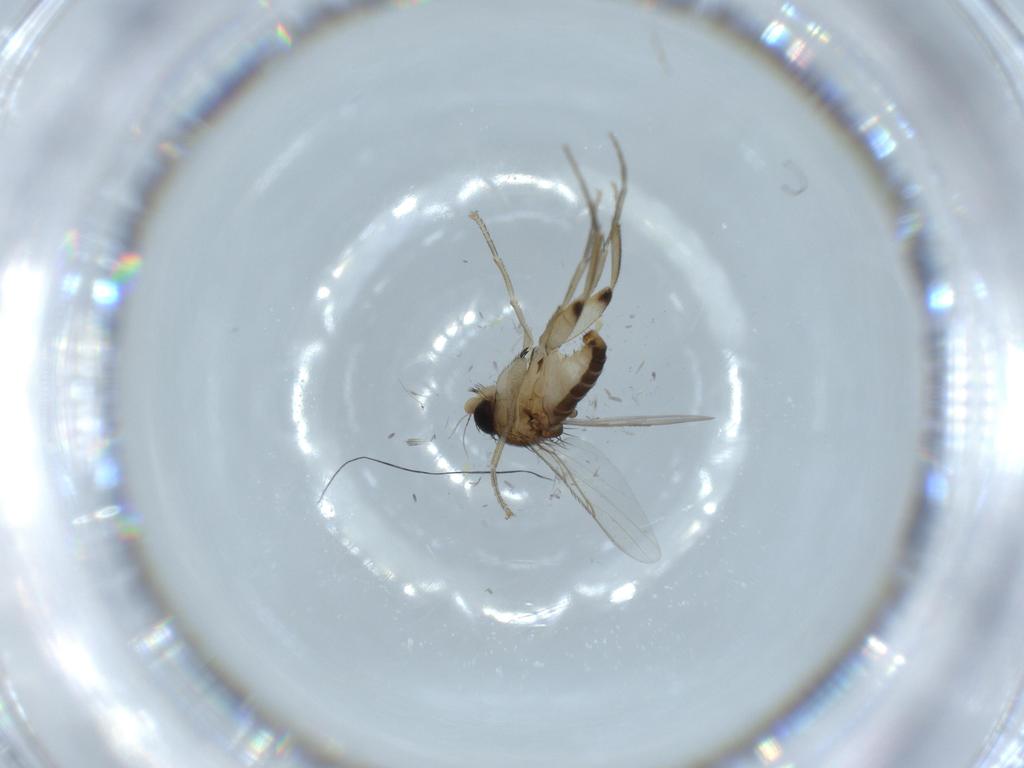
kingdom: Animalia
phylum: Arthropoda
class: Insecta
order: Diptera
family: Phoridae
